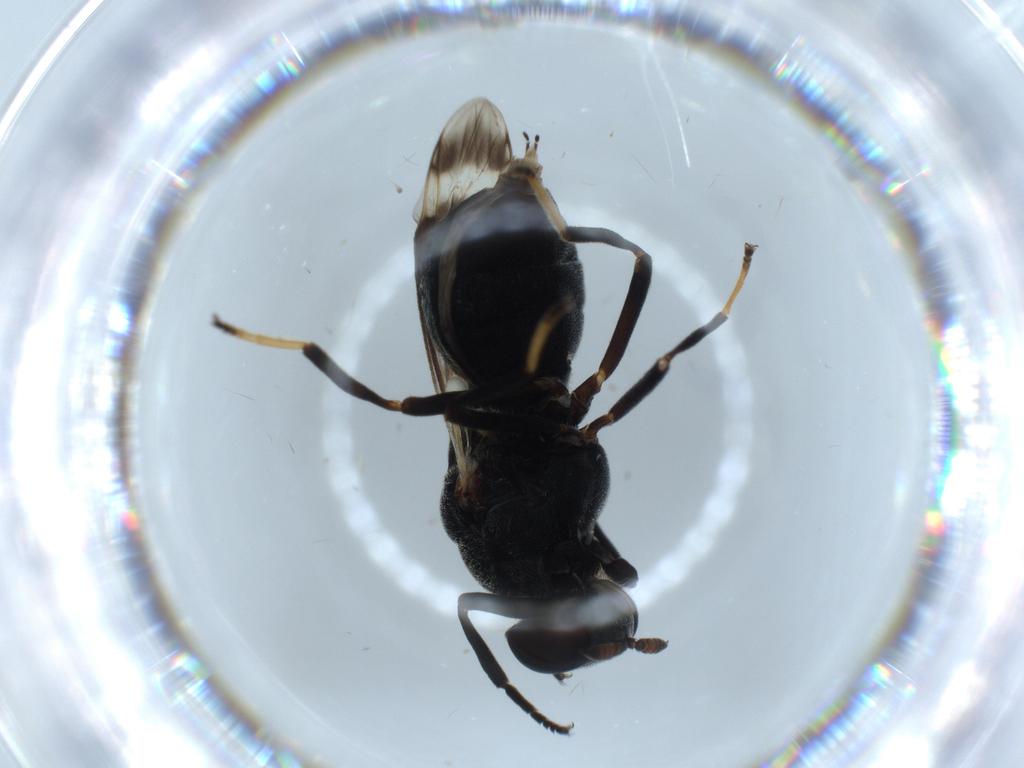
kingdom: Animalia
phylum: Arthropoda
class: Insecta
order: Diptera
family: Stratiomyidae
